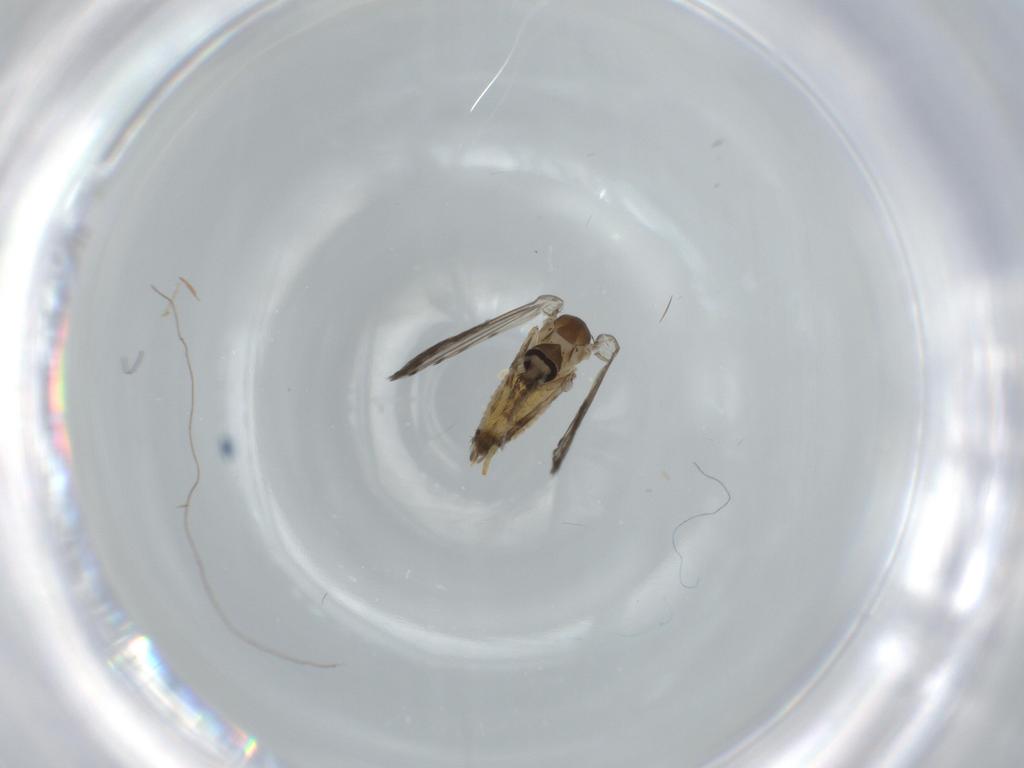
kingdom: Animalia
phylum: Arthropoda
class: Insecta
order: Diptera
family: Psychodidae
